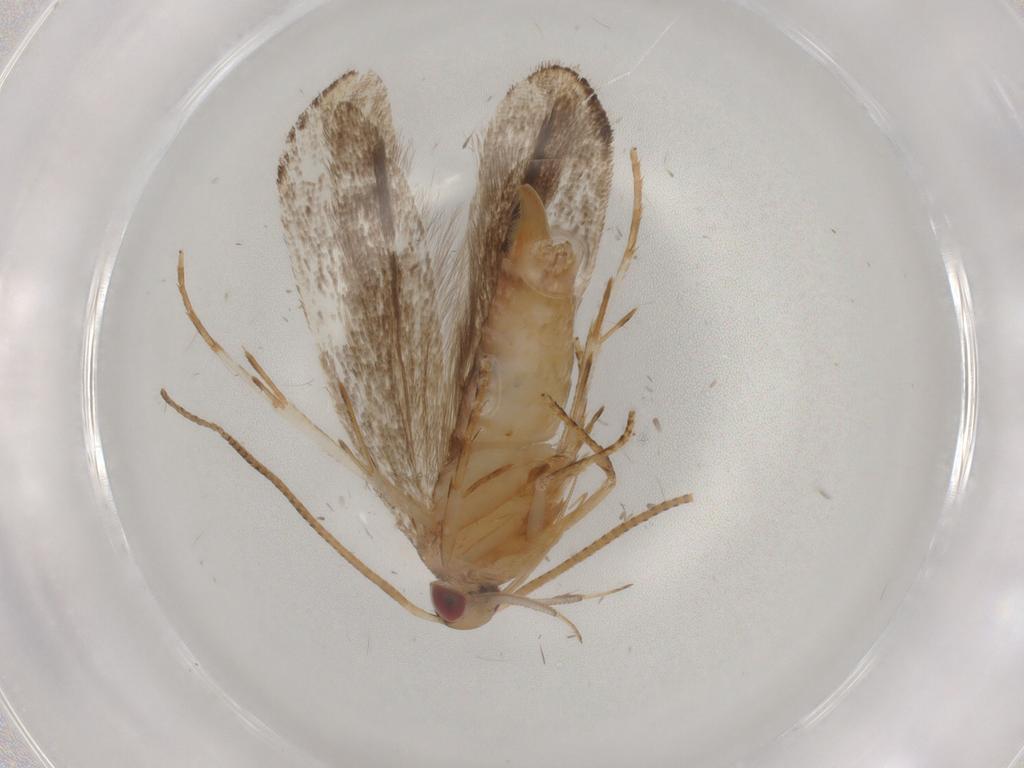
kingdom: Animalia
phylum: Arthropoda
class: Insecta
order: Lepidoptera
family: Gelechiidae
